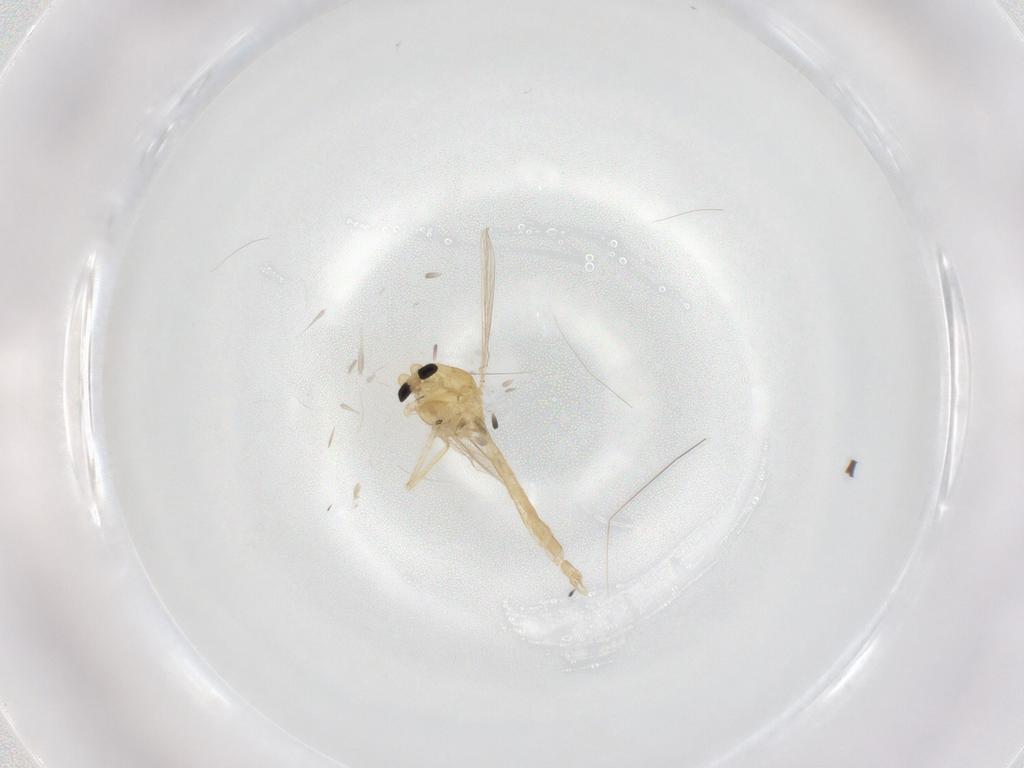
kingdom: Animalia
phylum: Arthropoda
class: Insecta
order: Diptera
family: Chironomidae
